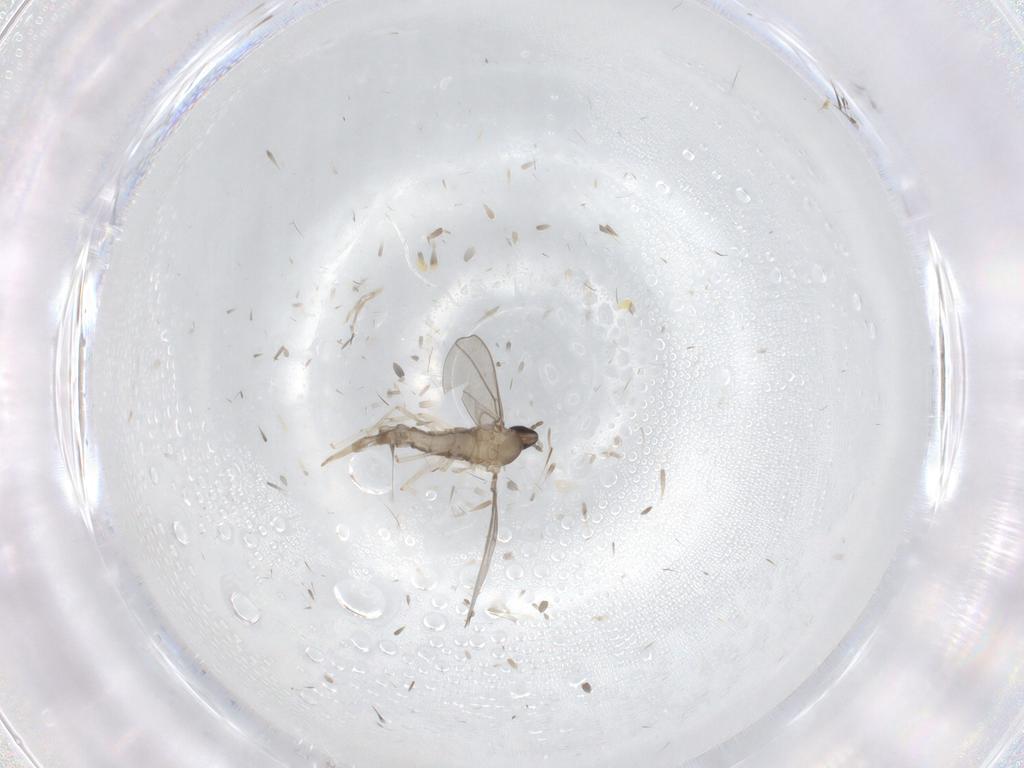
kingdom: Animalia
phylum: Arthropoda
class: Insecta
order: Diptera
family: Cecidomyiidae
